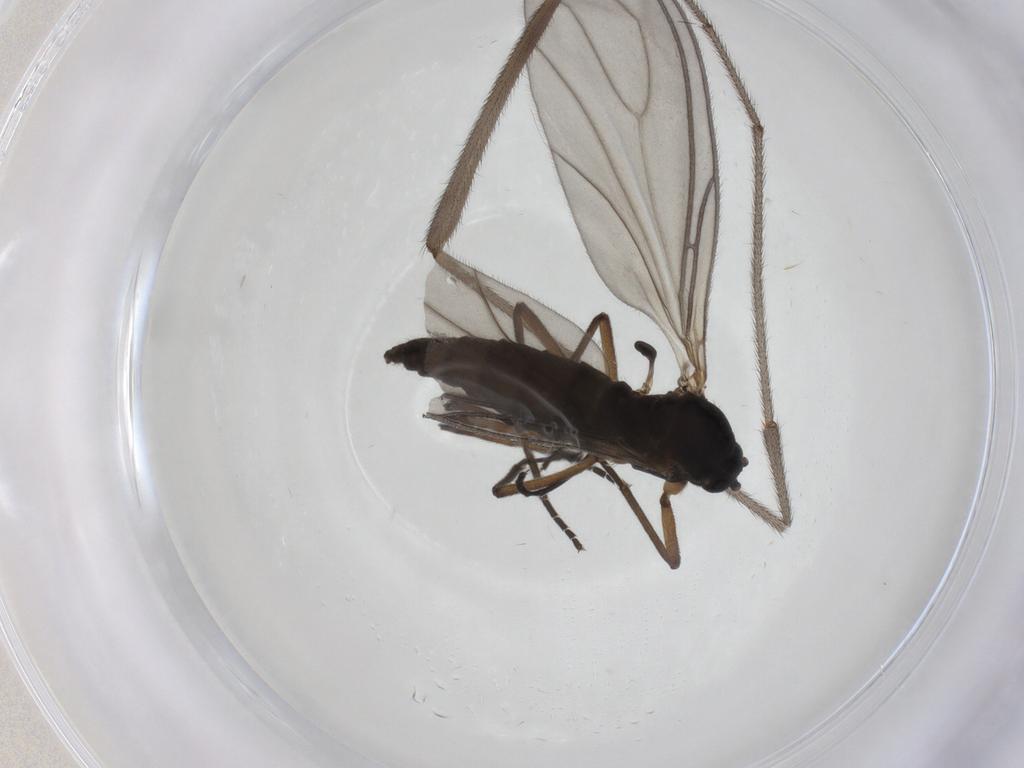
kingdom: Animalia
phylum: Arthropoda
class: Insecta
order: Diptera
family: Sciaridae
